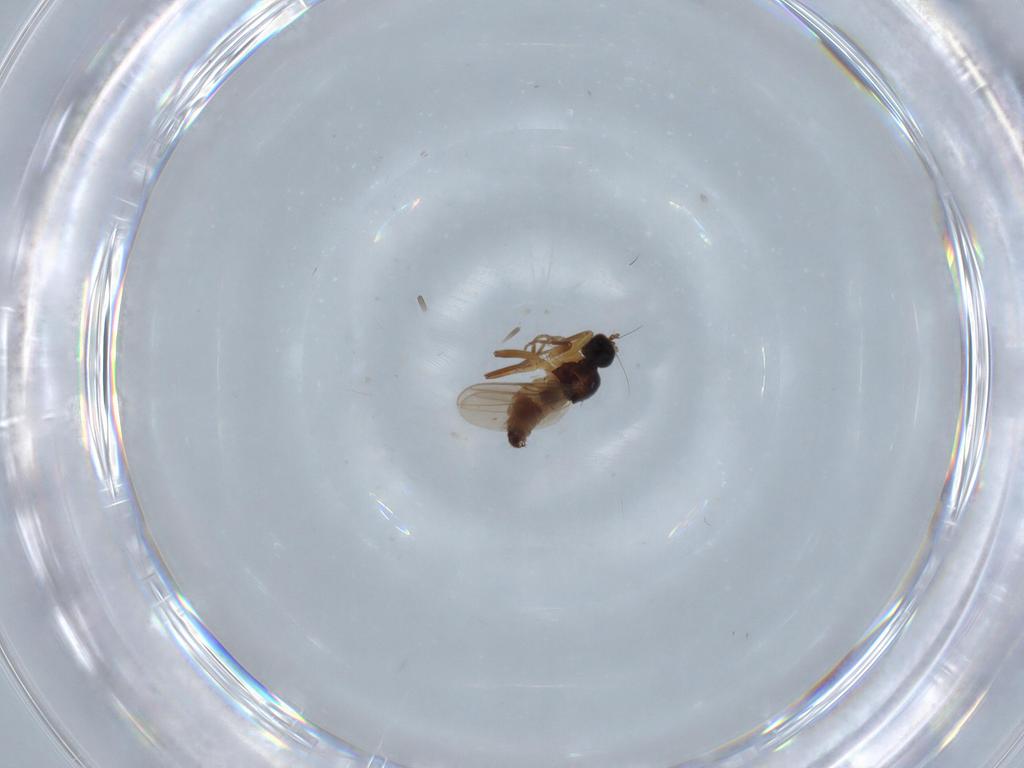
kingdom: Animalia
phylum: Arthropoda
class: Insecta
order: Diptera
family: Hybotidae
